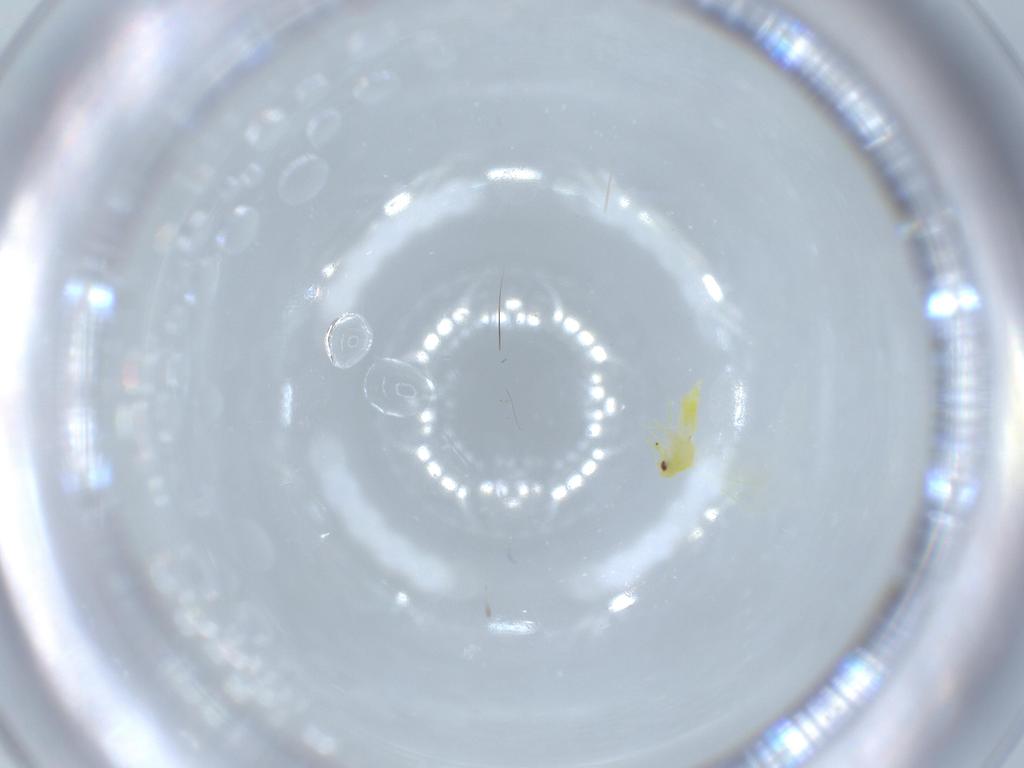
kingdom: Animalia
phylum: Arthropoda
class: Insecta
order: Hemiptera
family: Aleyrodidae
